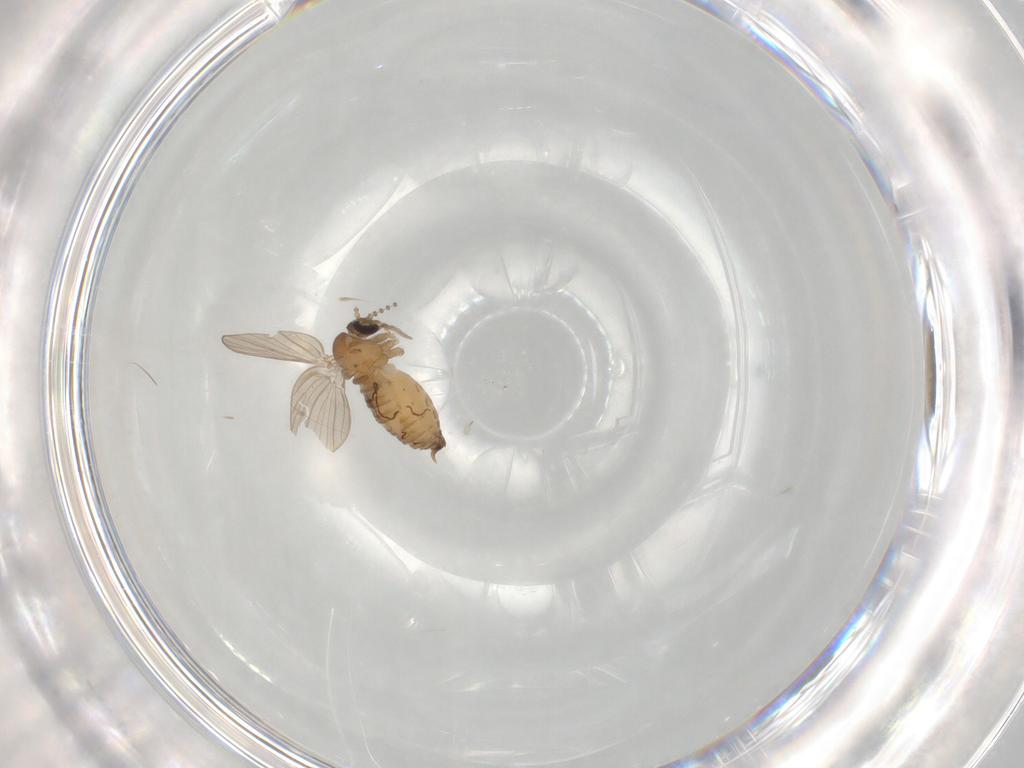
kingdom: Animalia
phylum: Arthropoda
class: Insecta
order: Diptera
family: Psychodidae
